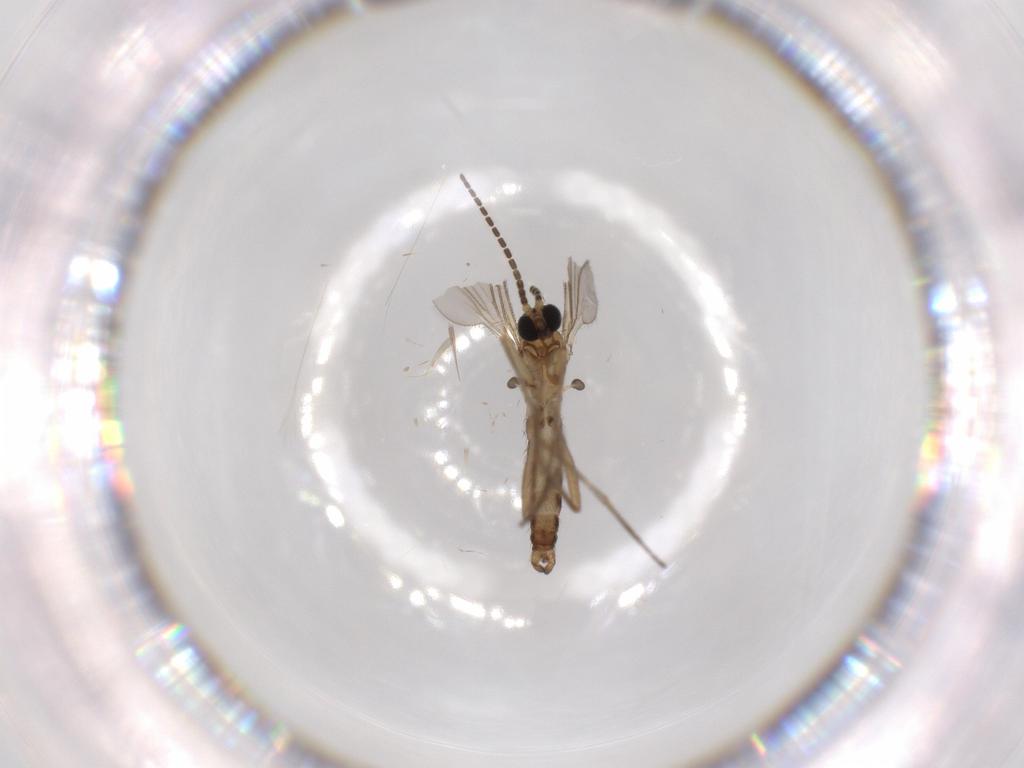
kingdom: Animalia
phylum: Arthropoda
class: Insecta
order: Diptera
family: Sciaridae
